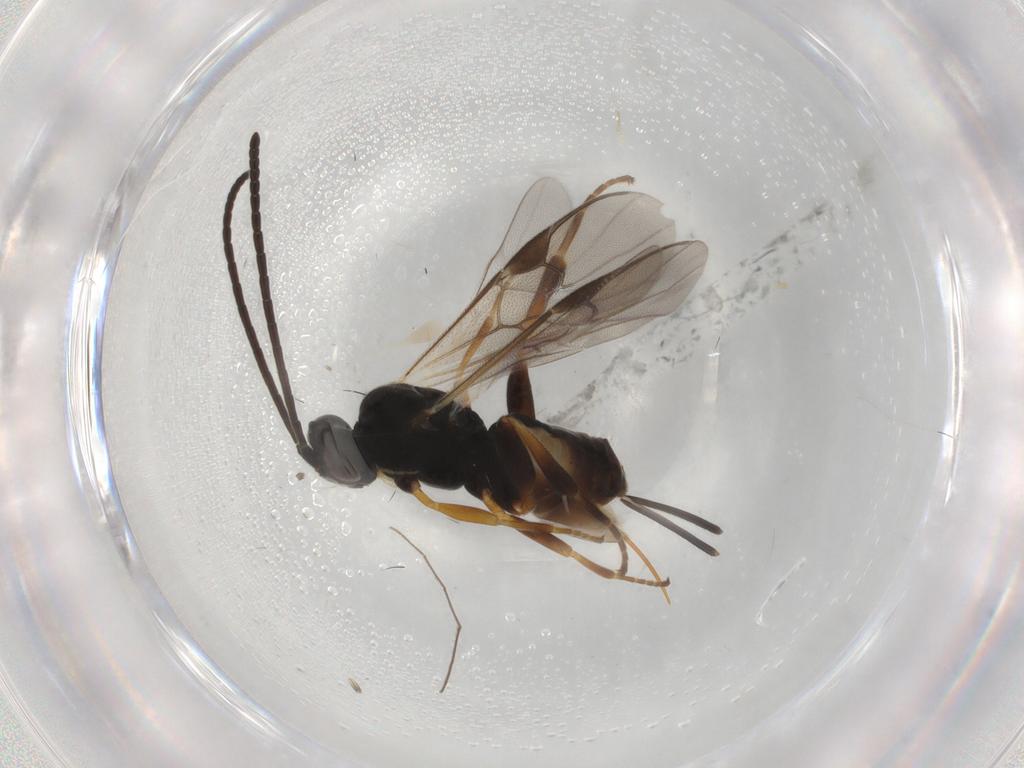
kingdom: Animalia
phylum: Arthropoda
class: Insecta
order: Hymenoptera
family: Braconidae
